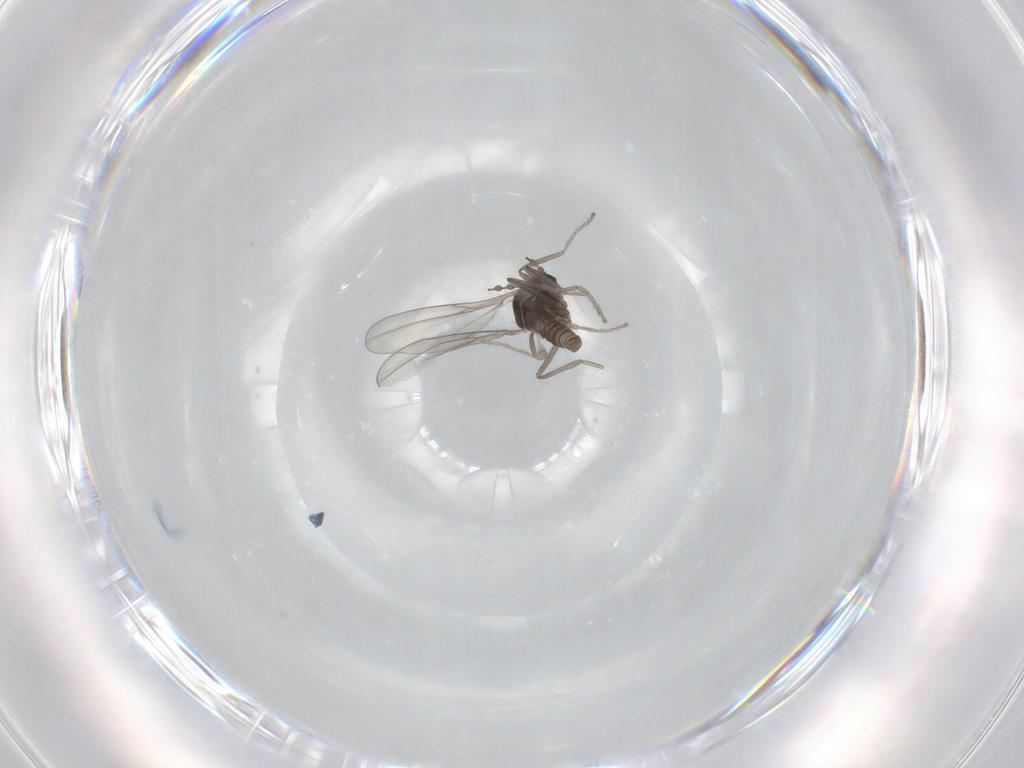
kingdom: Animalia
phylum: Arthropoda
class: Insecta
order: Diptera
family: Cecidomyiidae
